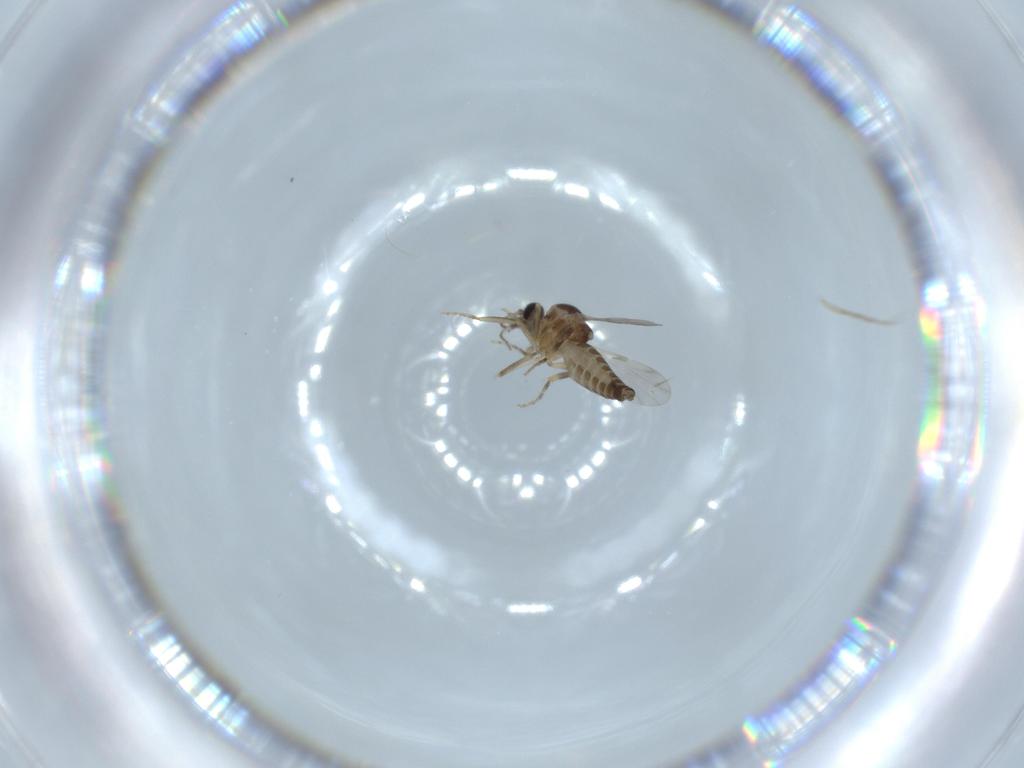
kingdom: Animalia
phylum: Arthropoda
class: Insecta
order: Diptera
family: Ceratopogonidae
